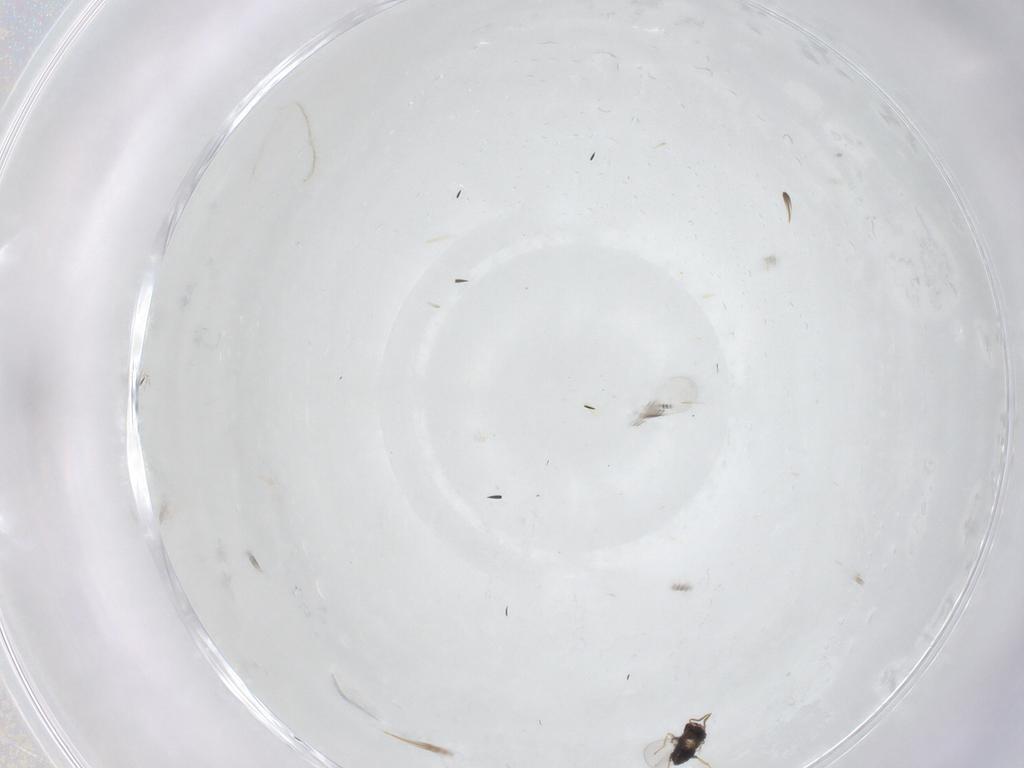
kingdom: Animalia
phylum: Arthropoda
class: Insecta
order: Hymenoptera
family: Trichogrammatidae
